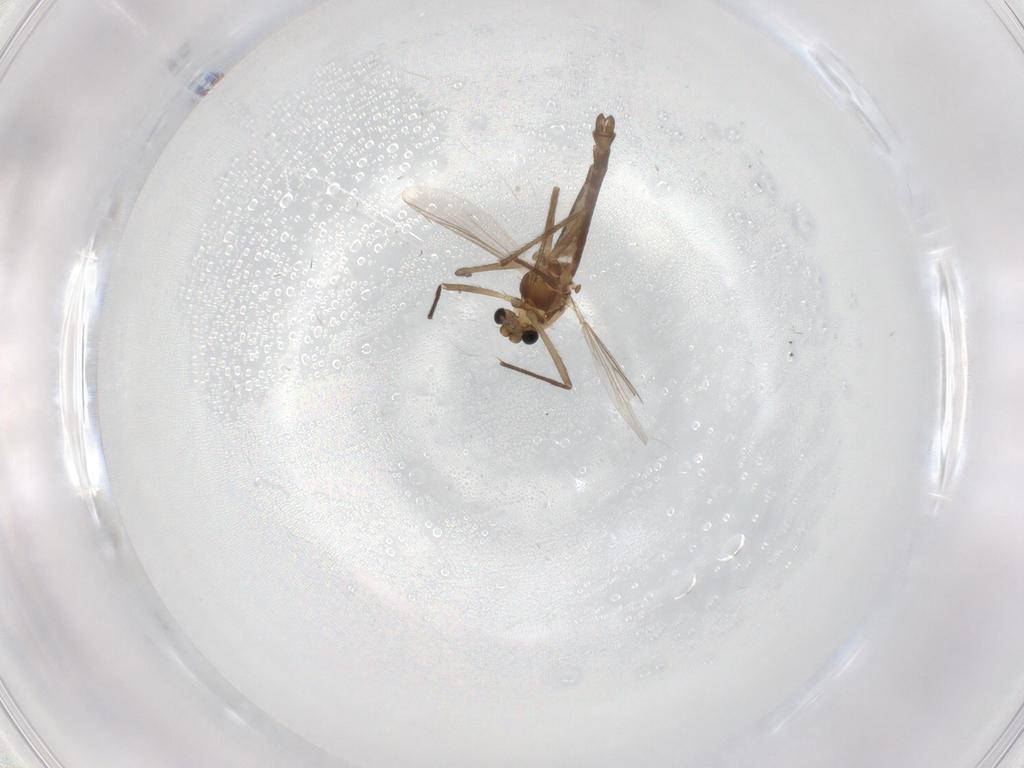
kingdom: Animalia
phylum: Arthropoda
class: Insecta
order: Diptera
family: Chironomidae
